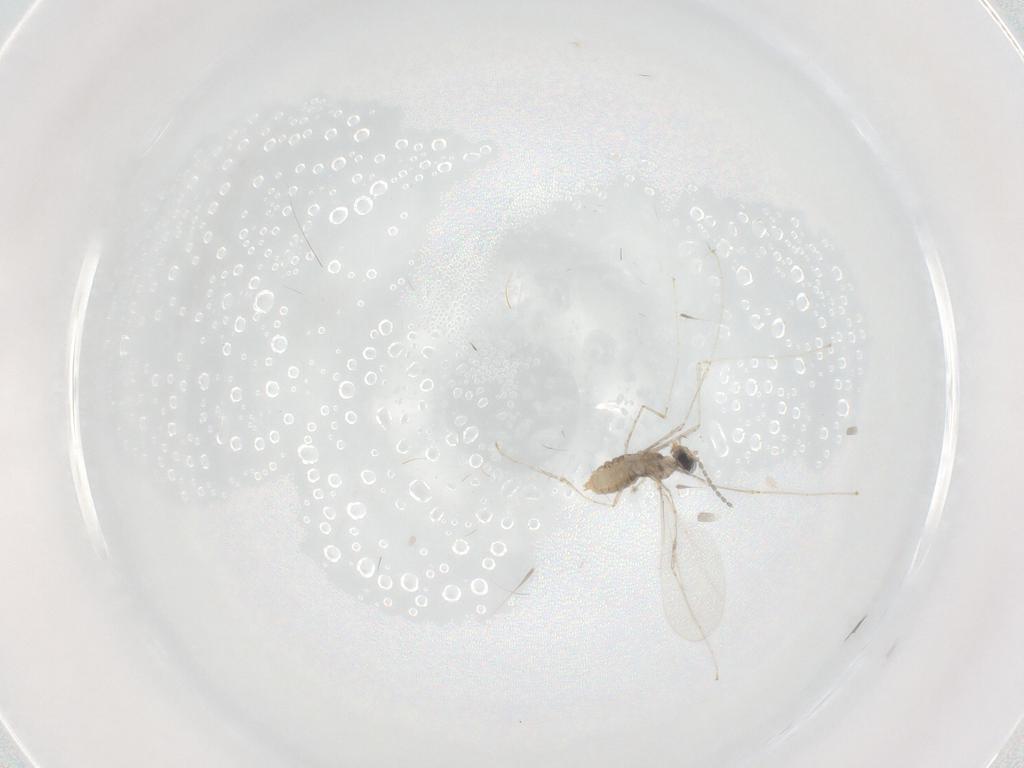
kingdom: Animalia
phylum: Arthropoda
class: Insecta
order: Diptera
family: Cecidomyiidae
